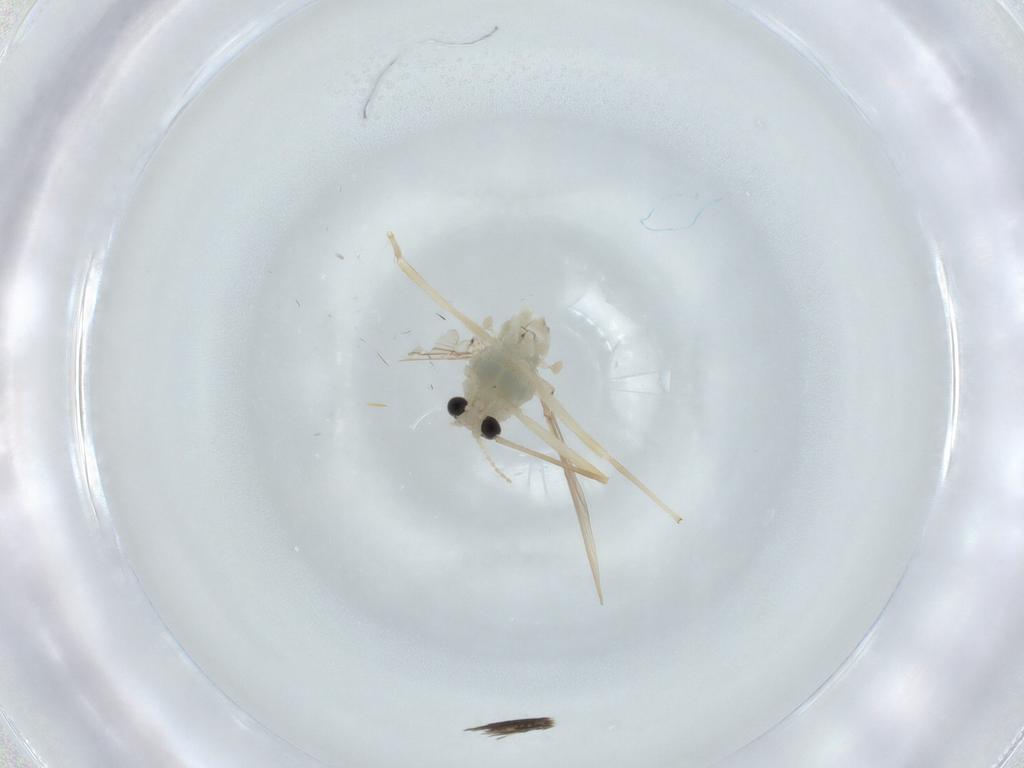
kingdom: Animalia
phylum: Arthropoda
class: Insecta
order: Diptera
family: Chironomidae
